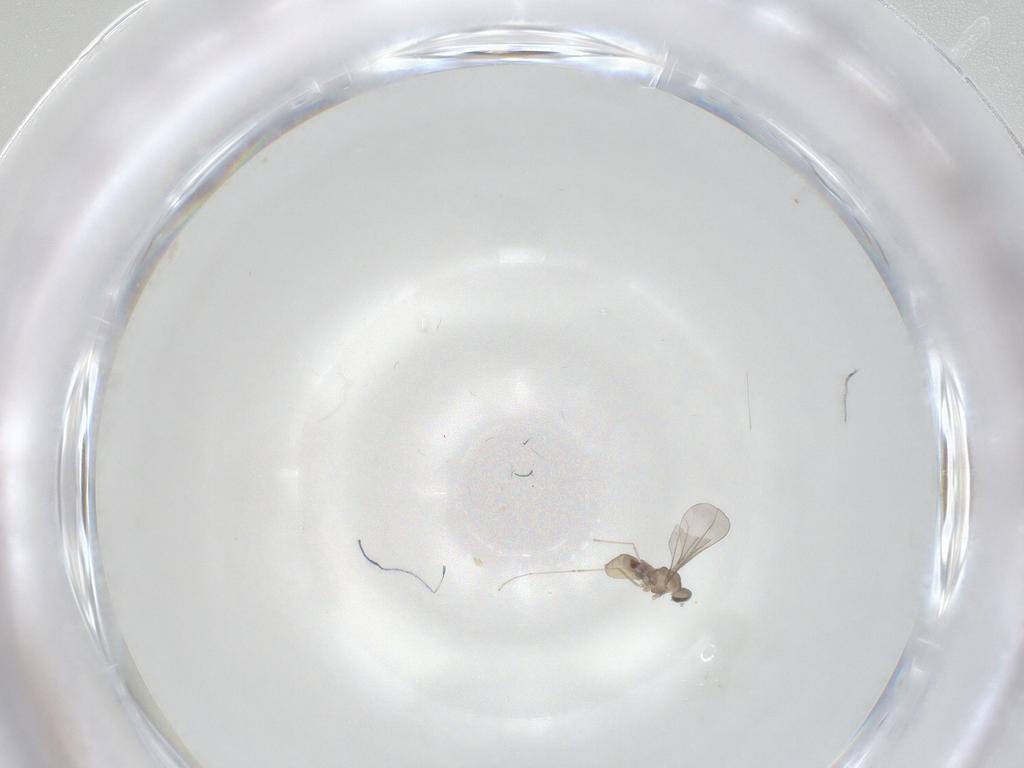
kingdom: Animalia
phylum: Arthropoda
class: Insecta
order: Diptera
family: Cecidomyiidae
